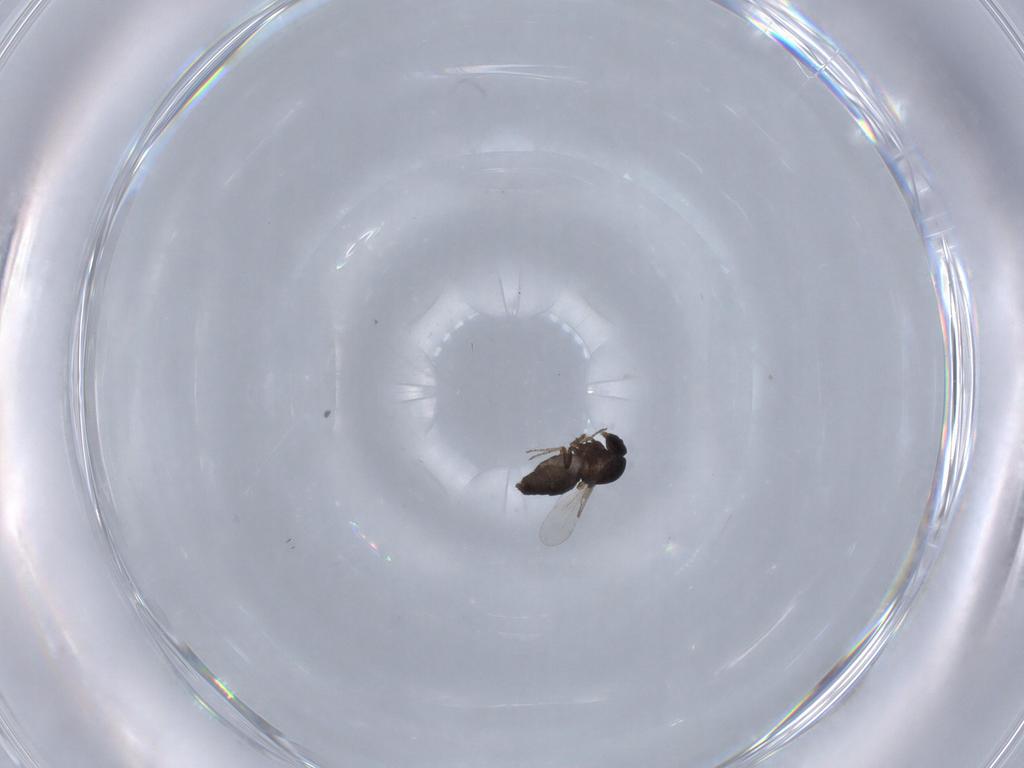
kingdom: Animalia
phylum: Arthropoda
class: Insecta
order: Diptera
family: Ceratopogonidae
